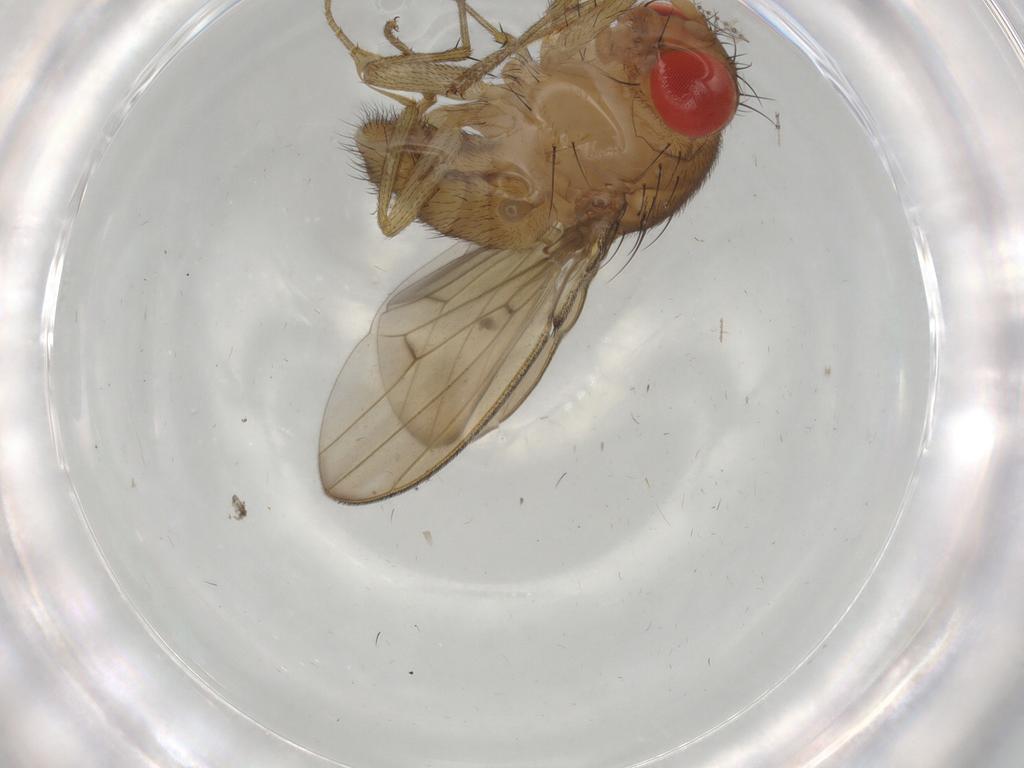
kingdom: Animalia
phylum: Arthropoda
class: Insecta
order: Diptera
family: Drosophilidae
